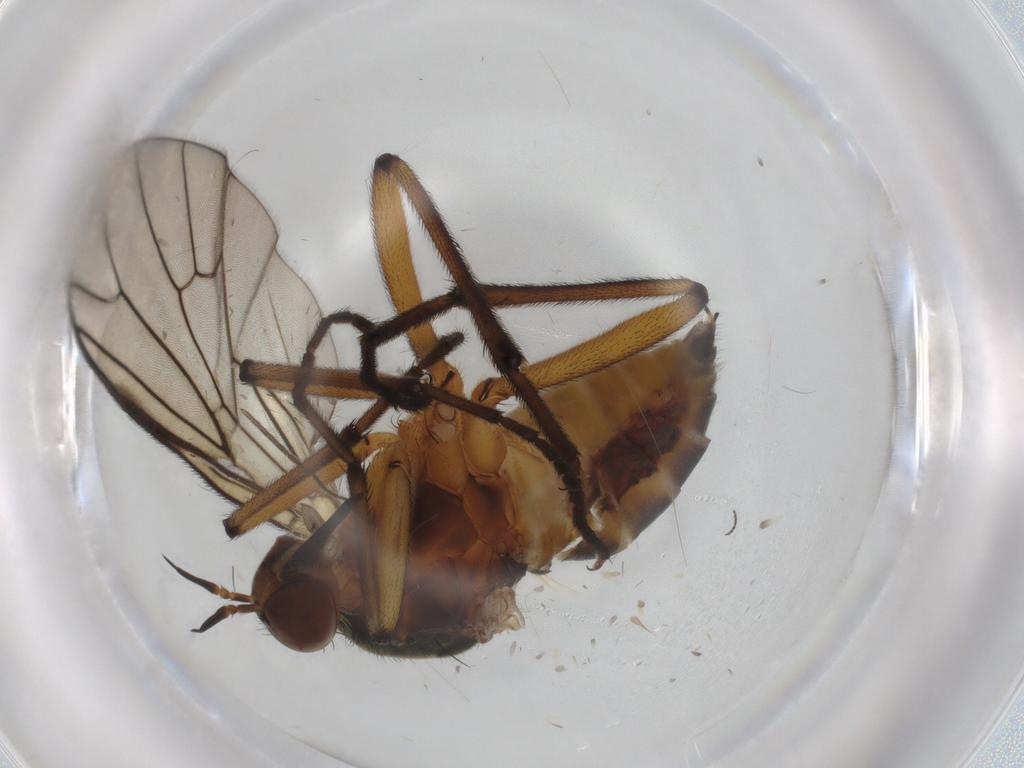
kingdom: Animalia
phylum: Arthropoda
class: Insecta
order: Diptera
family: Empididae
